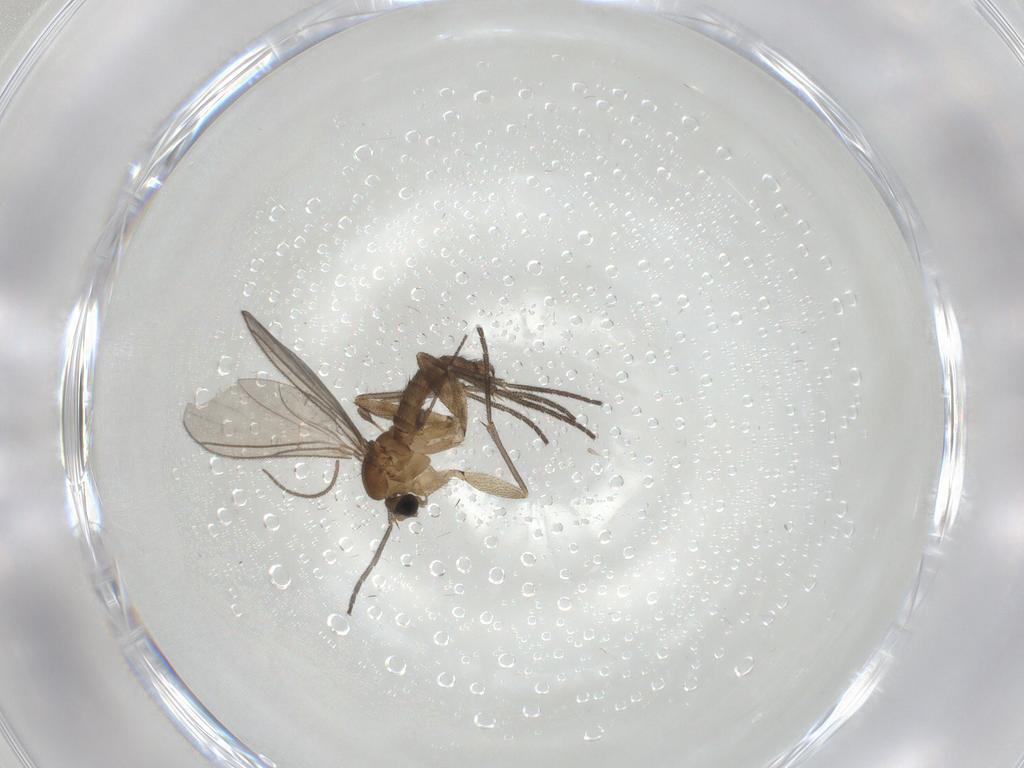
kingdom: Animalia
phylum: Arthropoda
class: Insecta
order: Diptera
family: Sciaridae
